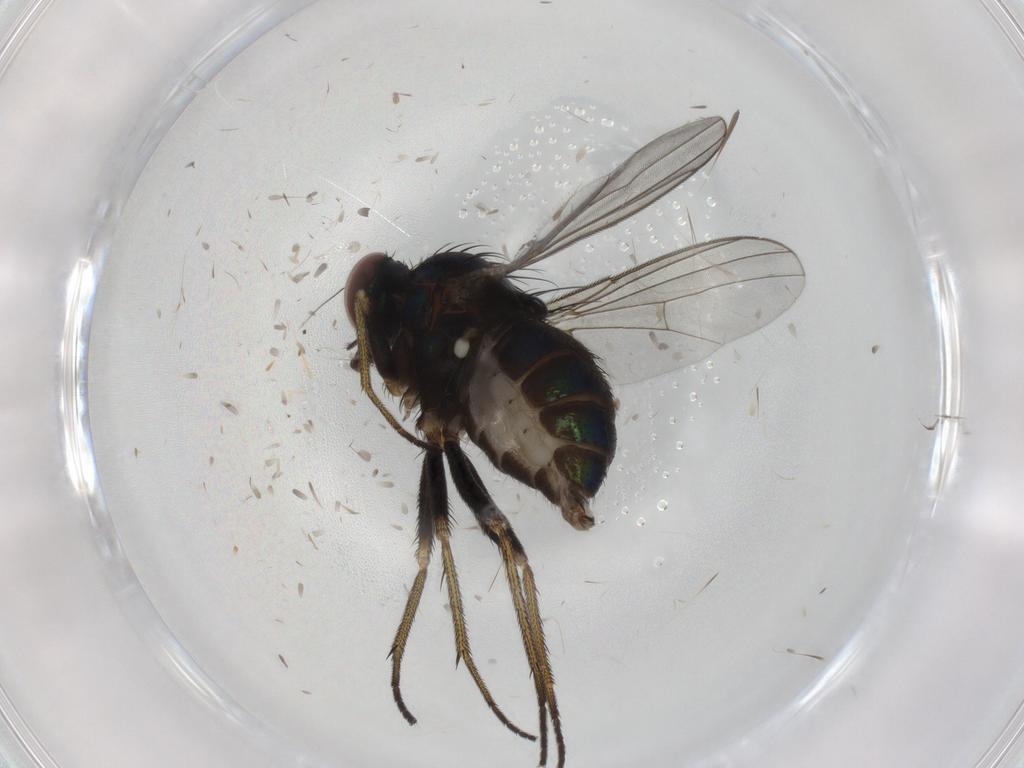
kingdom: Animalia
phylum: Arthropoda
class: Insecta
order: Diptera
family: Dolichopodidae
